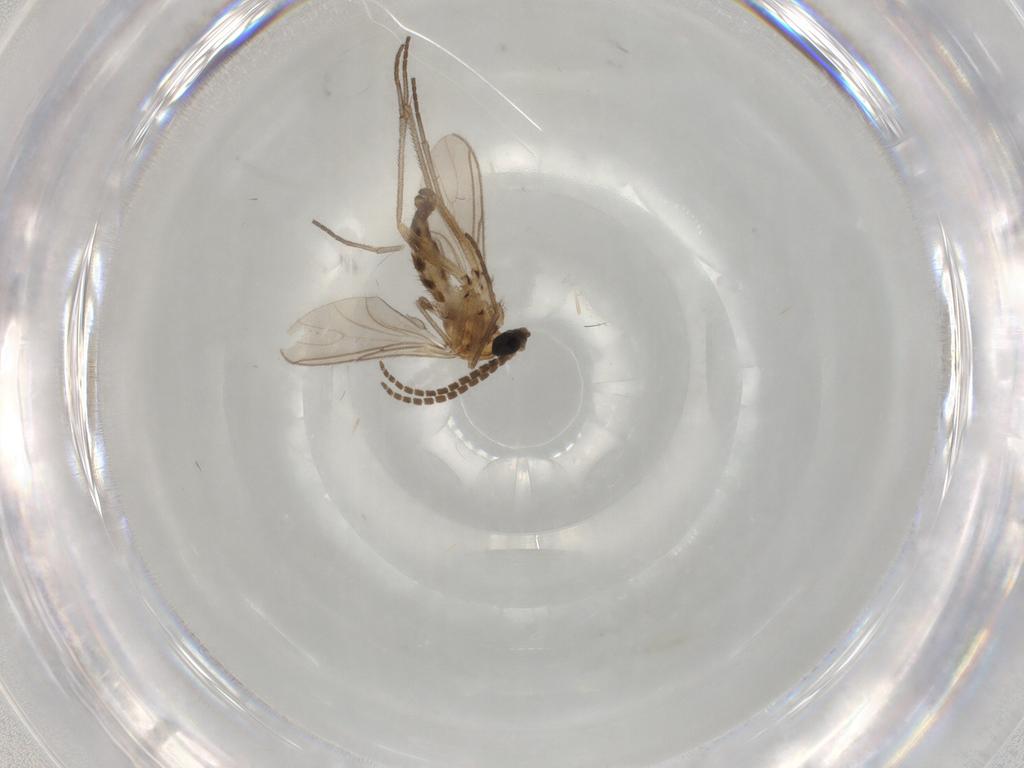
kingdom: Animalia
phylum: Arthropoda
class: Insecta
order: Diptera
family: Sciaridae
